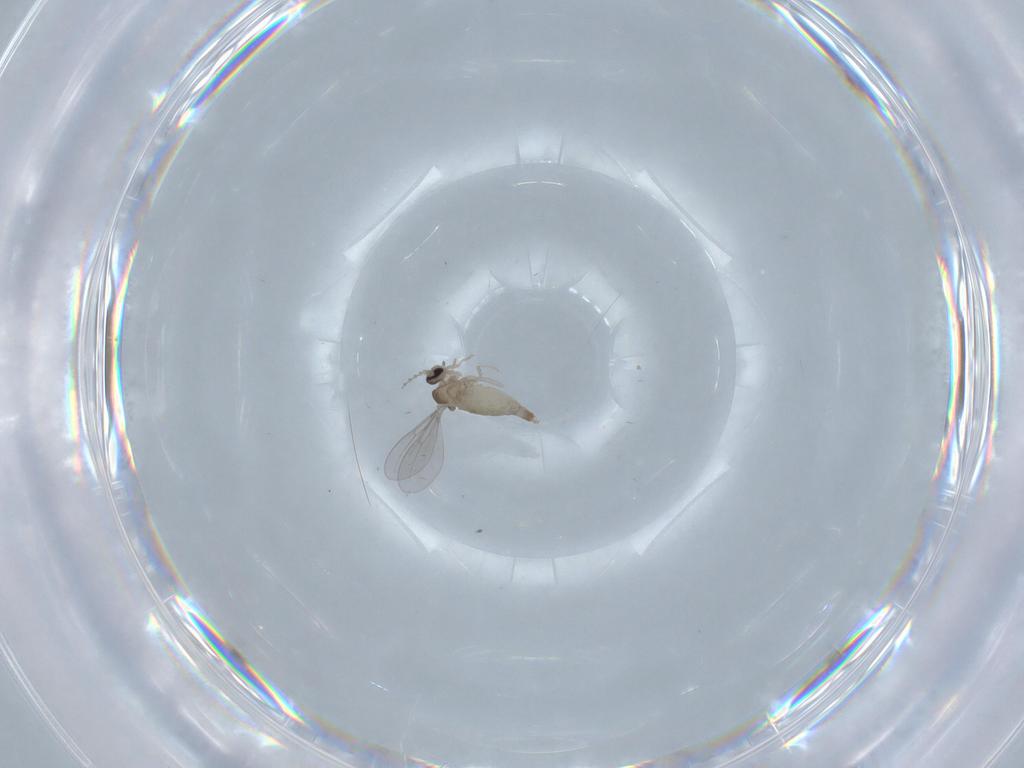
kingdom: Animalia
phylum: Arthropoda
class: Insecta
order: Diptera
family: Cecidomyiidae
